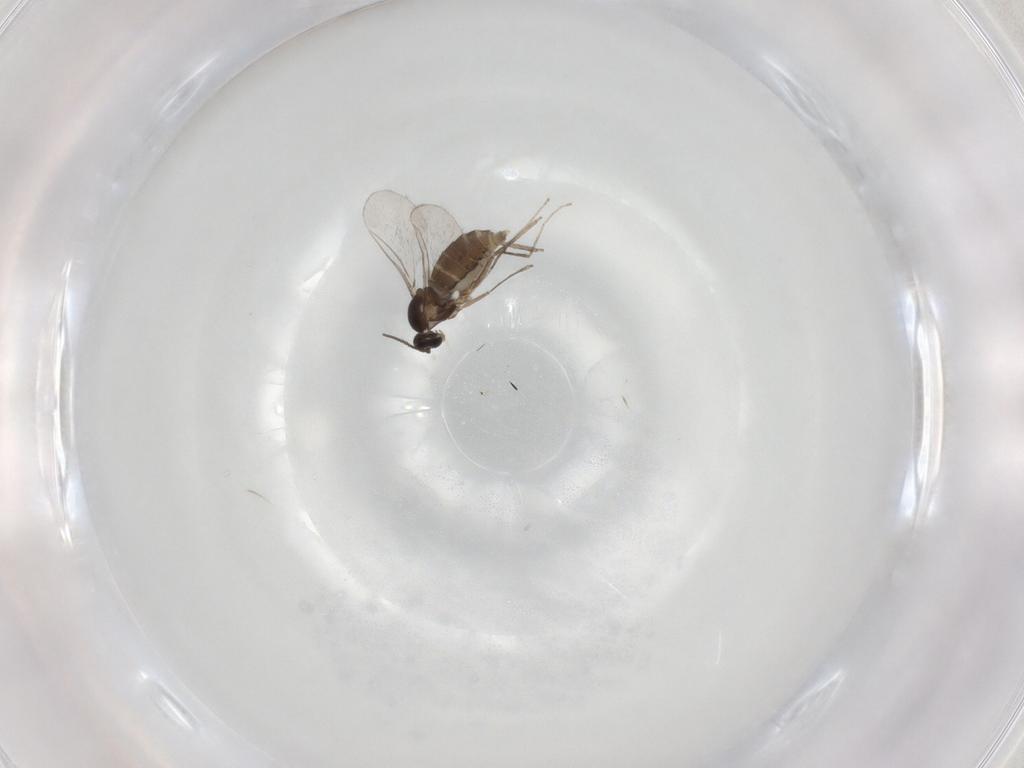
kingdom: Animalia
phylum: Arthropoda
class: Insecta
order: Diptera
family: Cecidomyiidae
